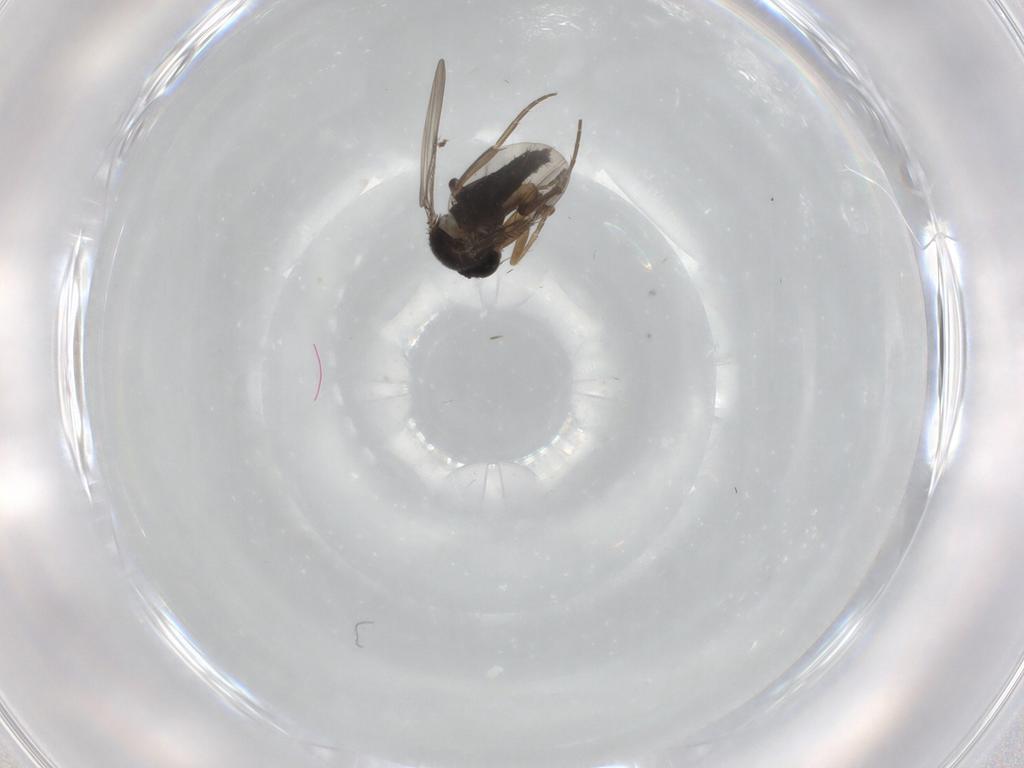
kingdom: Animalia
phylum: Arthropoda
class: Insecta
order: Diptera
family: Phoridae
